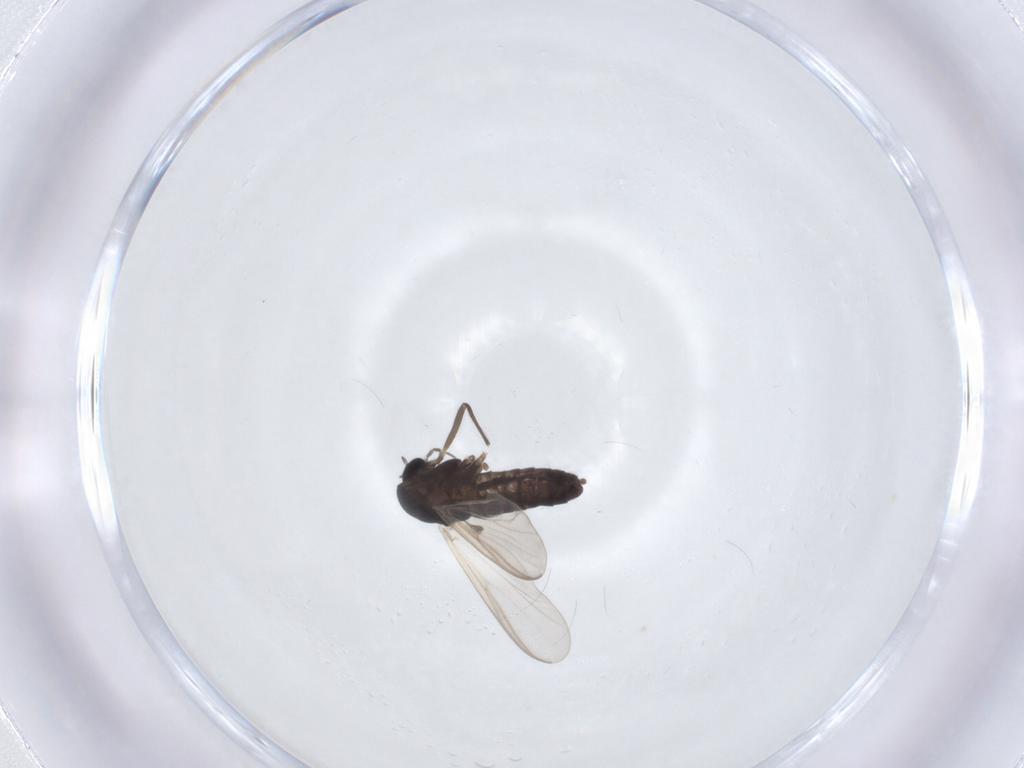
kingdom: Animalia
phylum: Arthropoda
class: Insecta
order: Diptera
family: Chironomidae
